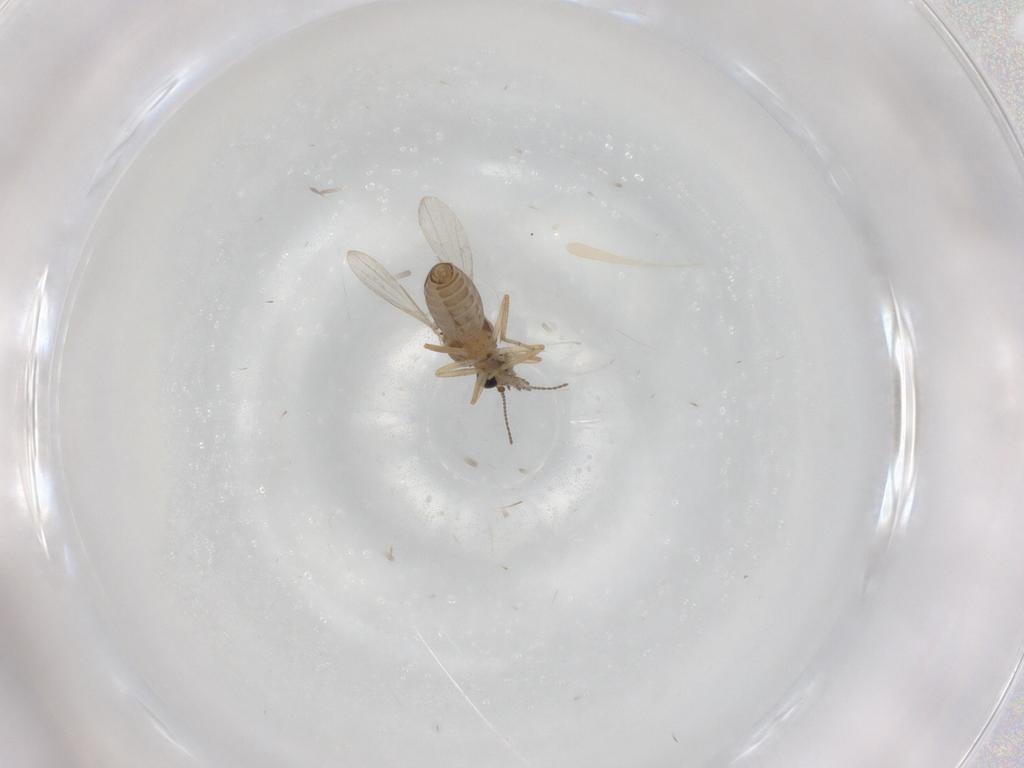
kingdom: Animalia
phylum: Arthropoda
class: Insecta
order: Diptera
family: Ceratopogonidae
